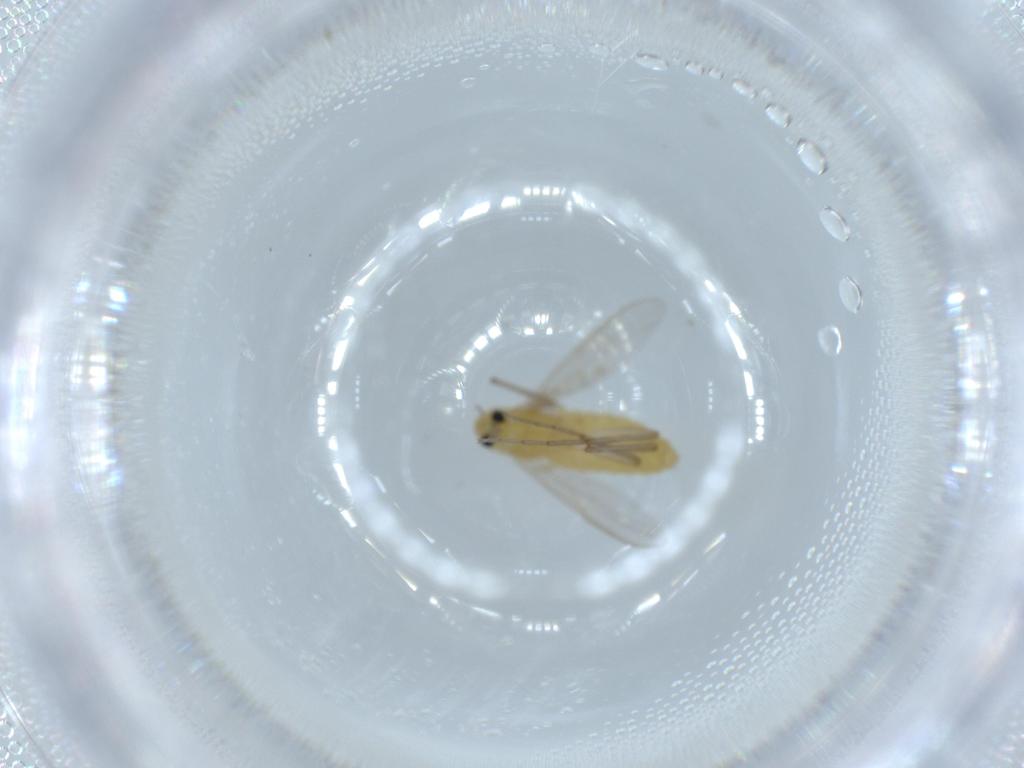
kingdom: Animalia
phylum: Arthropoda
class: Insecta
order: Diptera
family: Chironomidae
